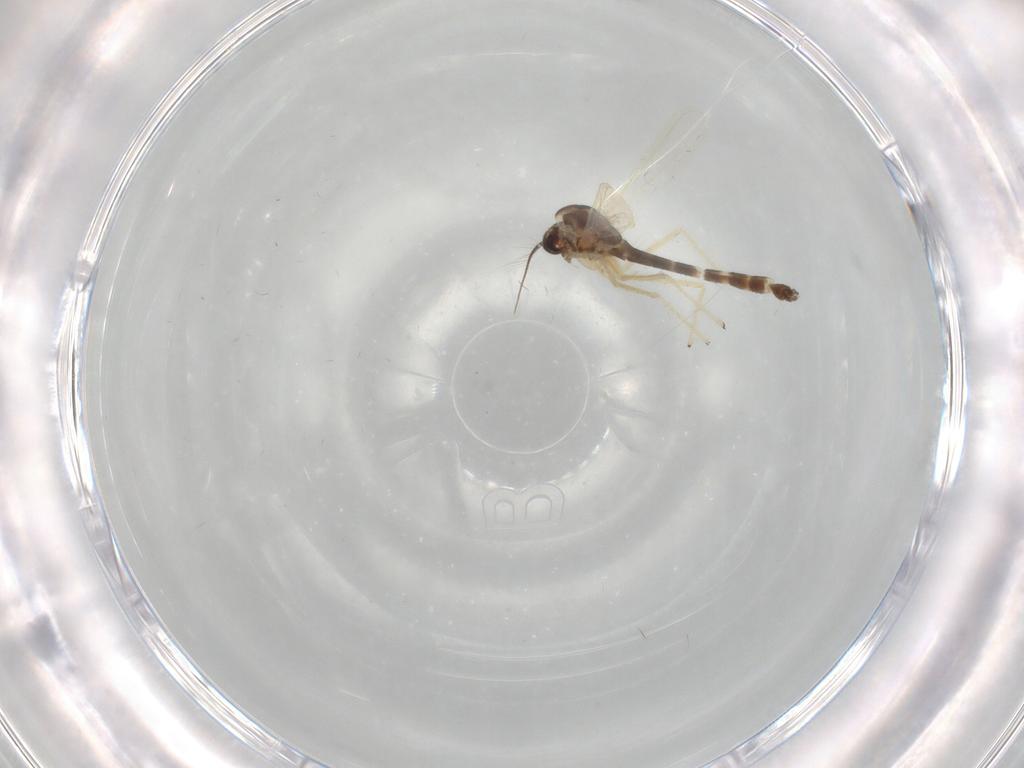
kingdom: Animalia
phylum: Arthropoda
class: Insecta
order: Diptera
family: Chironomidae
